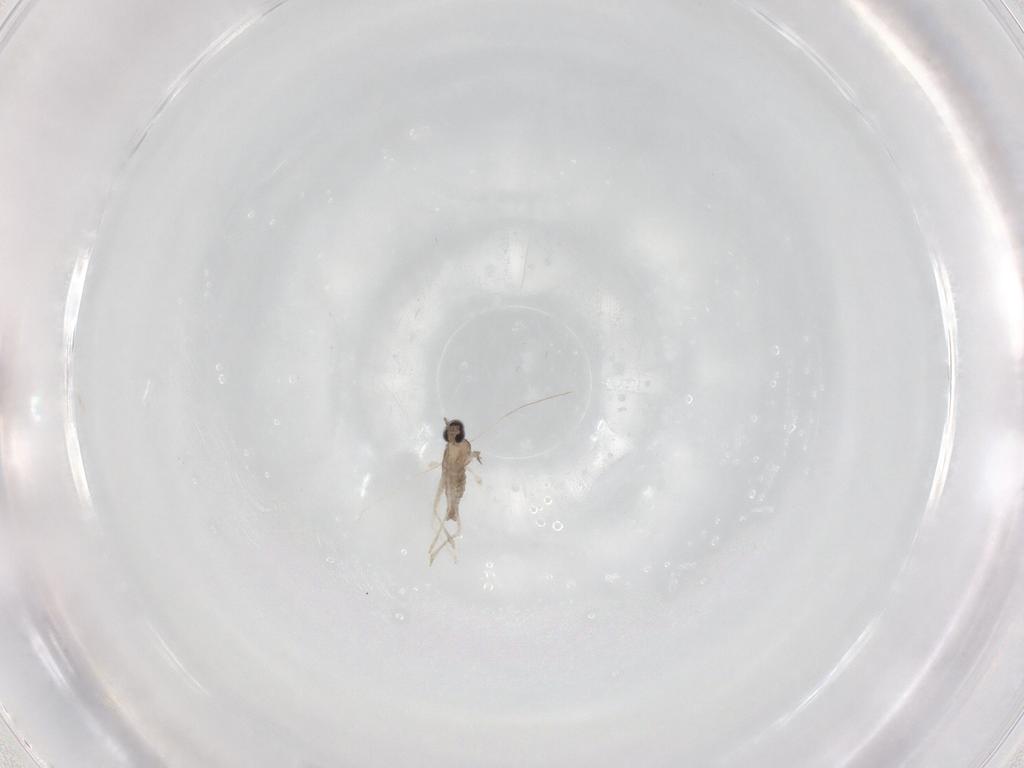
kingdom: Animalia
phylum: Arthropoda
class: Insecta
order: Diptera
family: Cecidomyiidae
